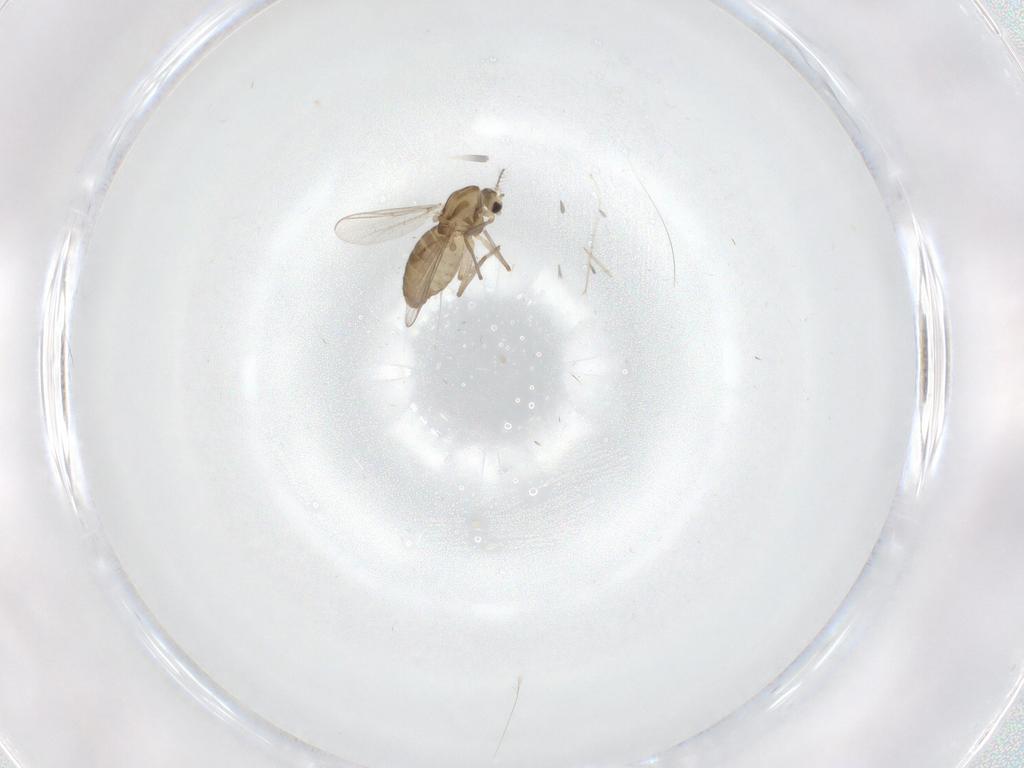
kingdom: Animalia
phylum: Arthropoda
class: Insecta
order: Diptera
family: Chironomidae
